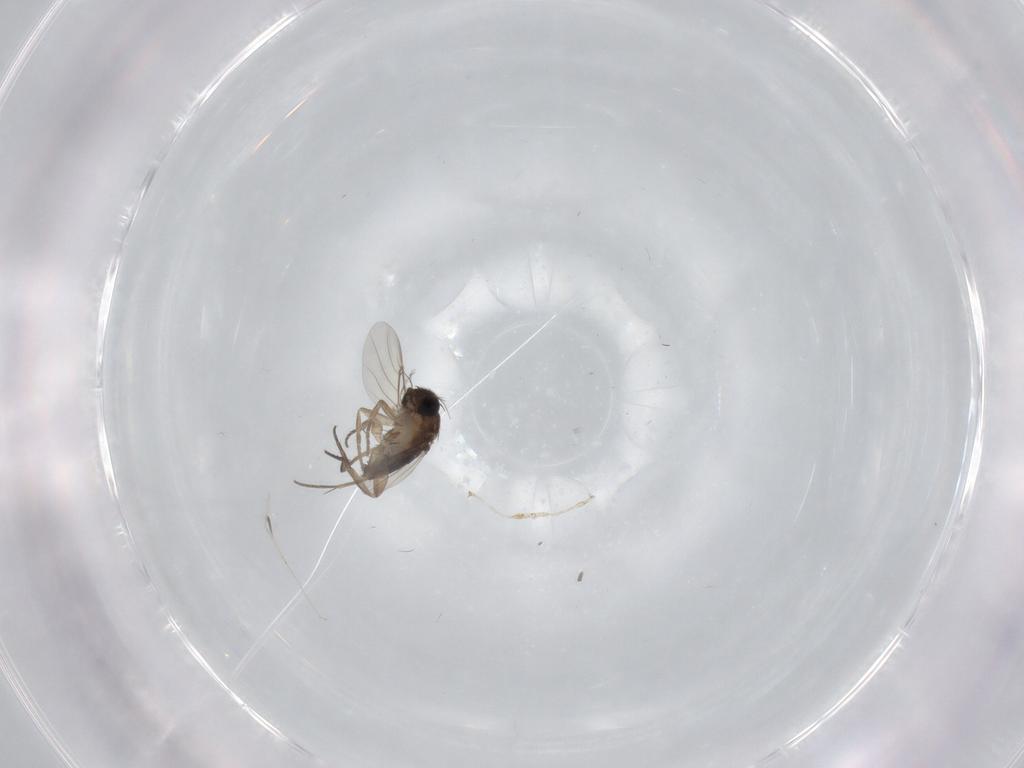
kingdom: Animalia
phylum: Arthropoda
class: Insecta
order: Diptera
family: Phoridae
